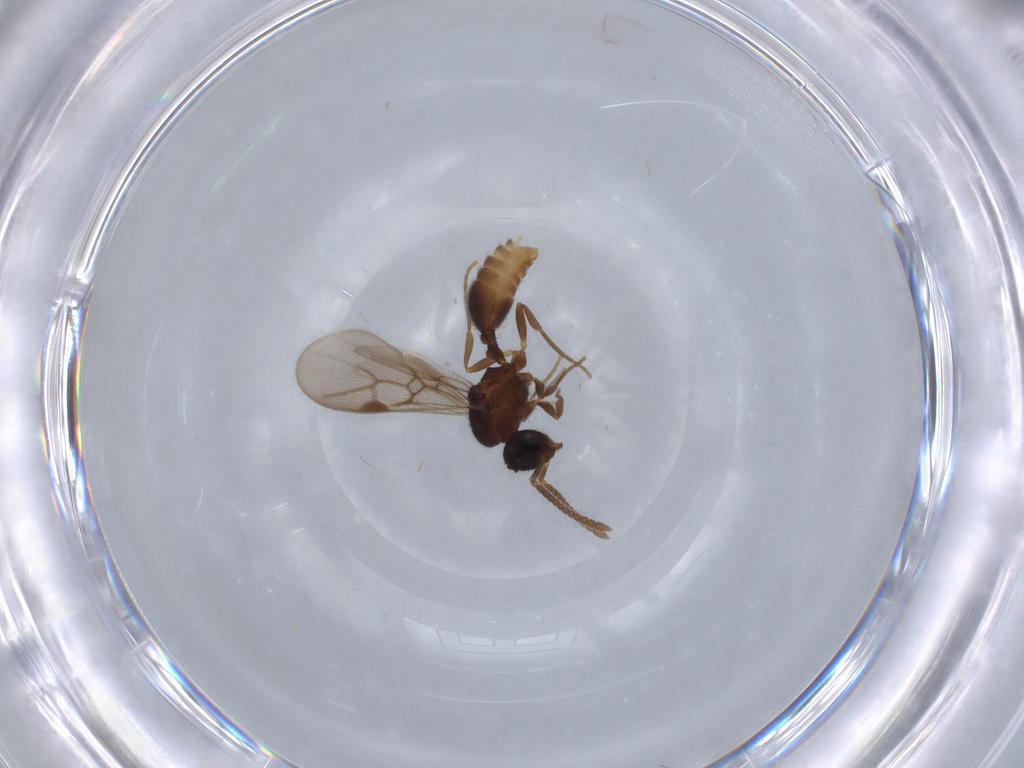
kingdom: Animalia
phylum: Arthropoda
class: Insecta
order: Hymenoptera
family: Formicidae
